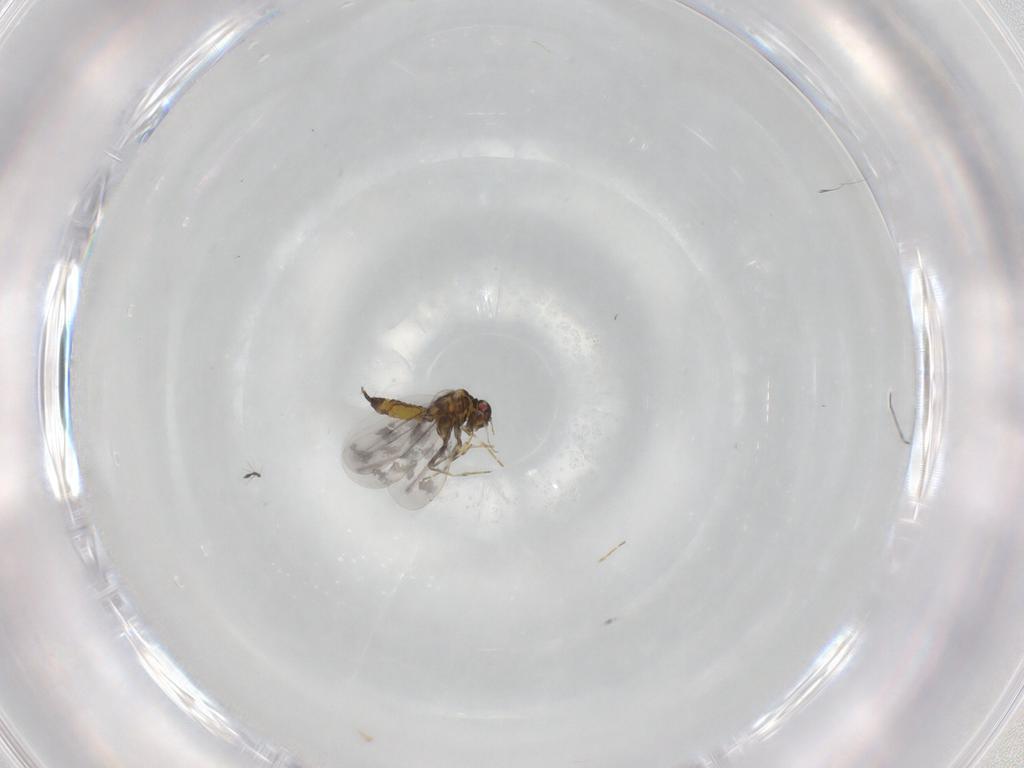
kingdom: Animalia
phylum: Arthropoda
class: Insecta
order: Diptera
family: Chironomidae
